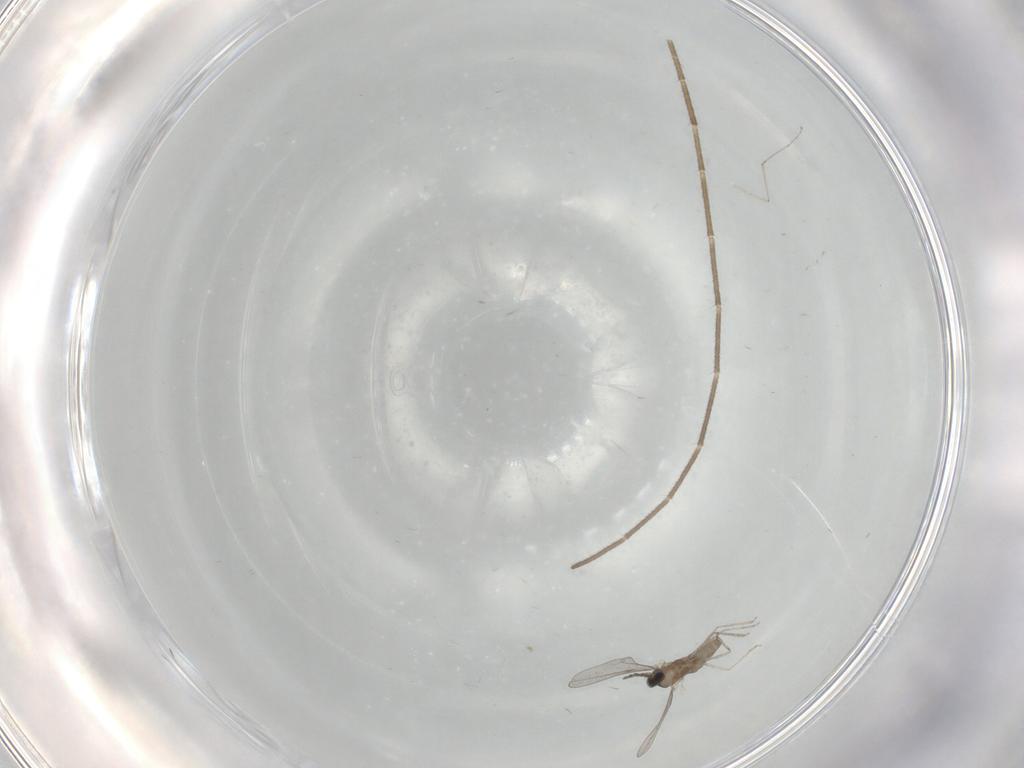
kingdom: Animalia
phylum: Arthropoda
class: Insecta
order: Diptera
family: Cecidomyiidae
